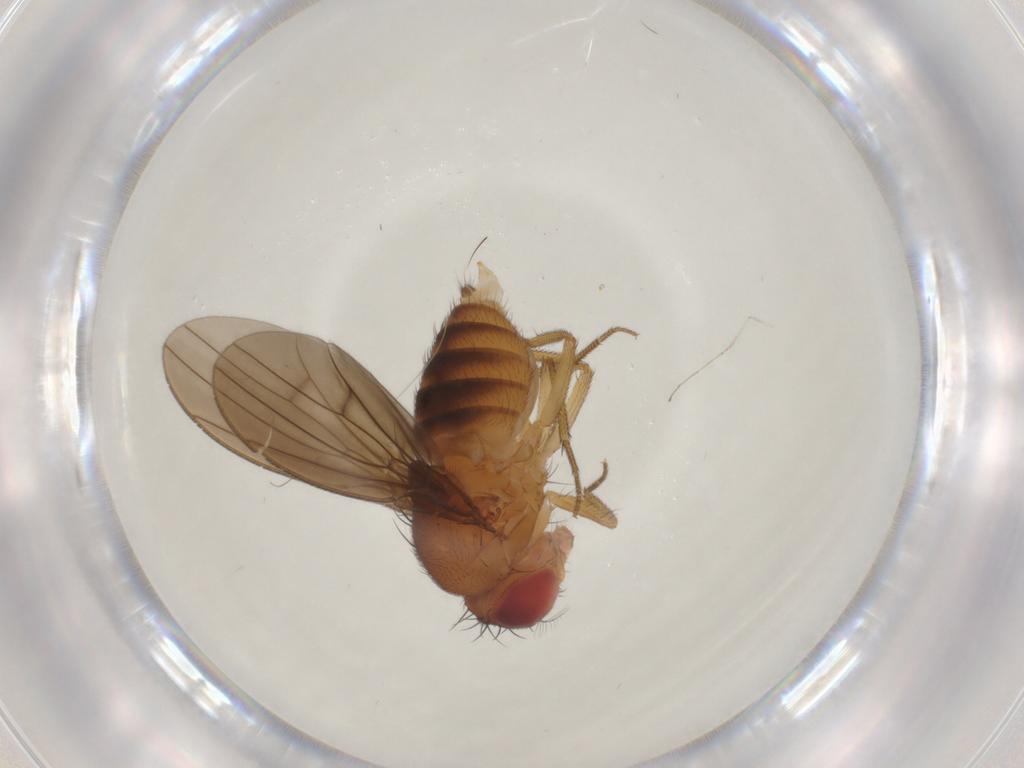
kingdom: Animalia
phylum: Arthropoda
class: Insecta
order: Diptera
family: Drosophilidae
